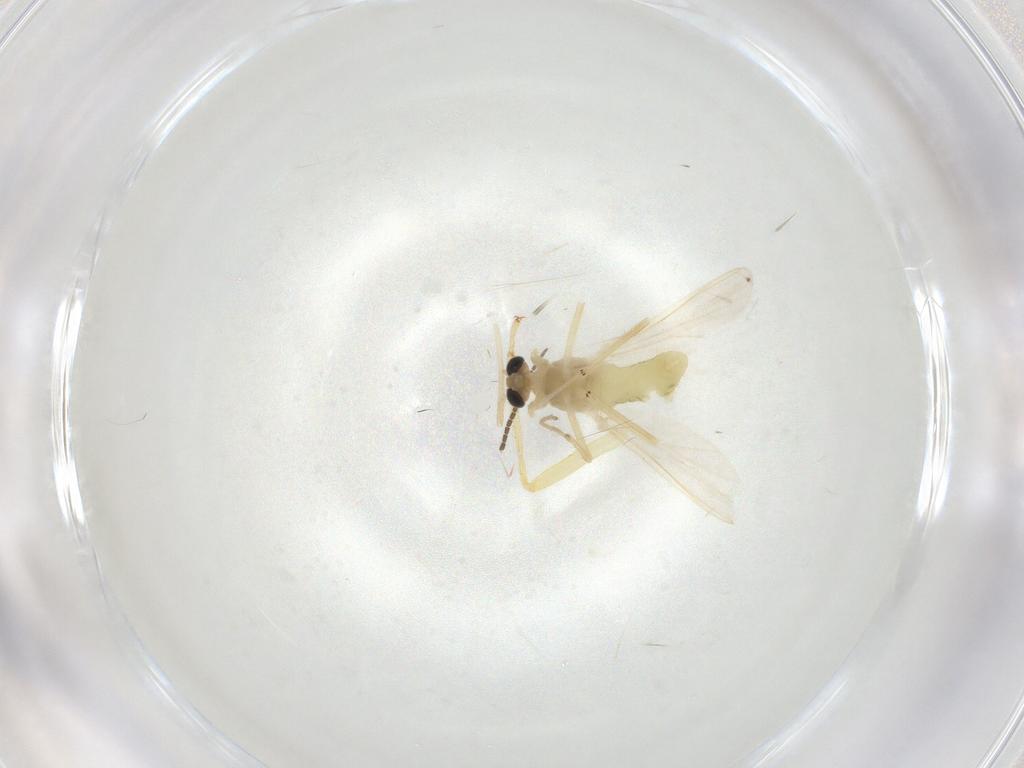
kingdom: Animalia
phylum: Arthropoda
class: Insecta
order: Diptera
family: Chironomidae
